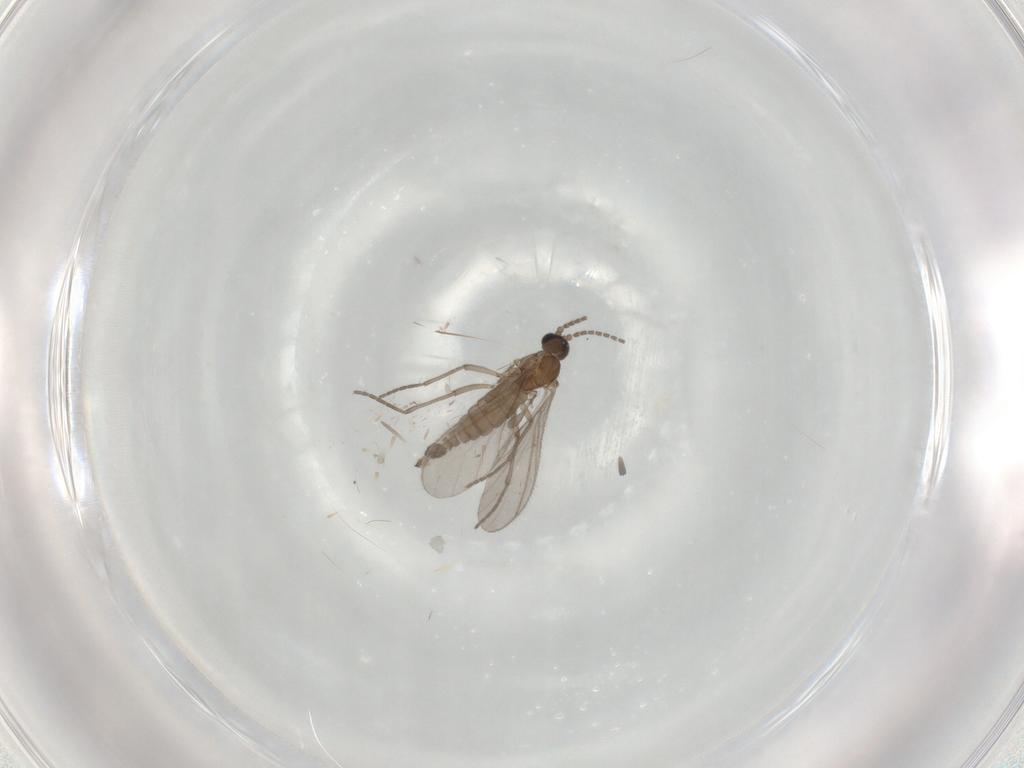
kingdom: Animalia
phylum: Arthropoda
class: Insecta
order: Diptera
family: Sciaridae
